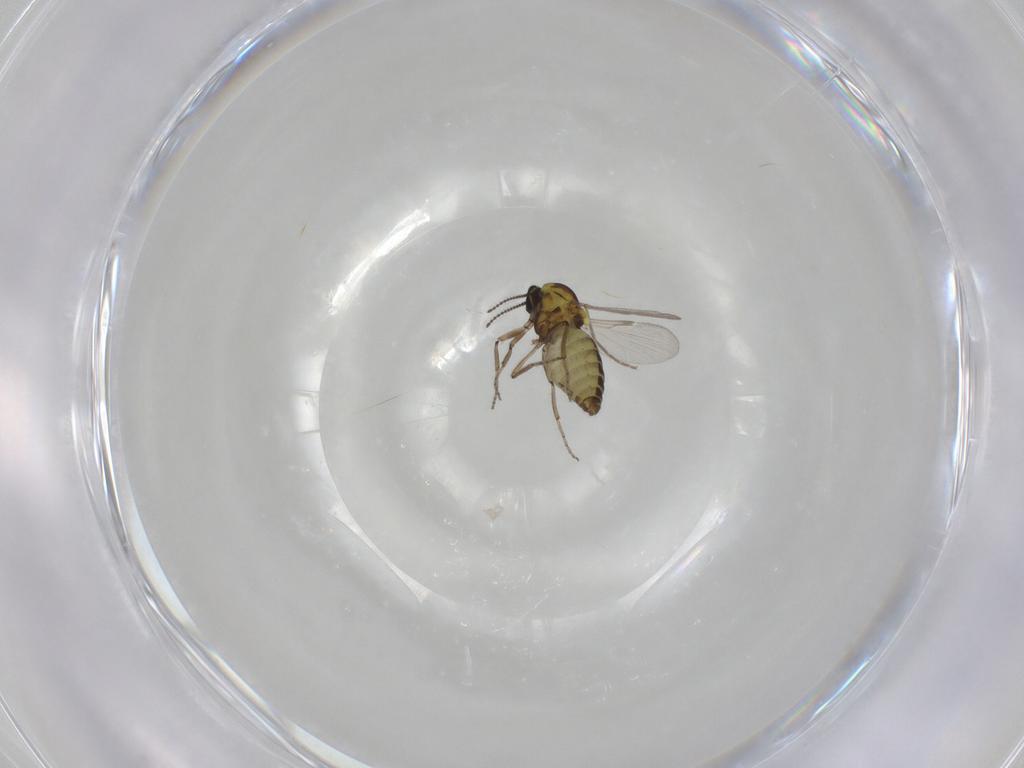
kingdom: Animalia
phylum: Arthropoda
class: Insecta
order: Diptera
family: Ceratopogonidae
